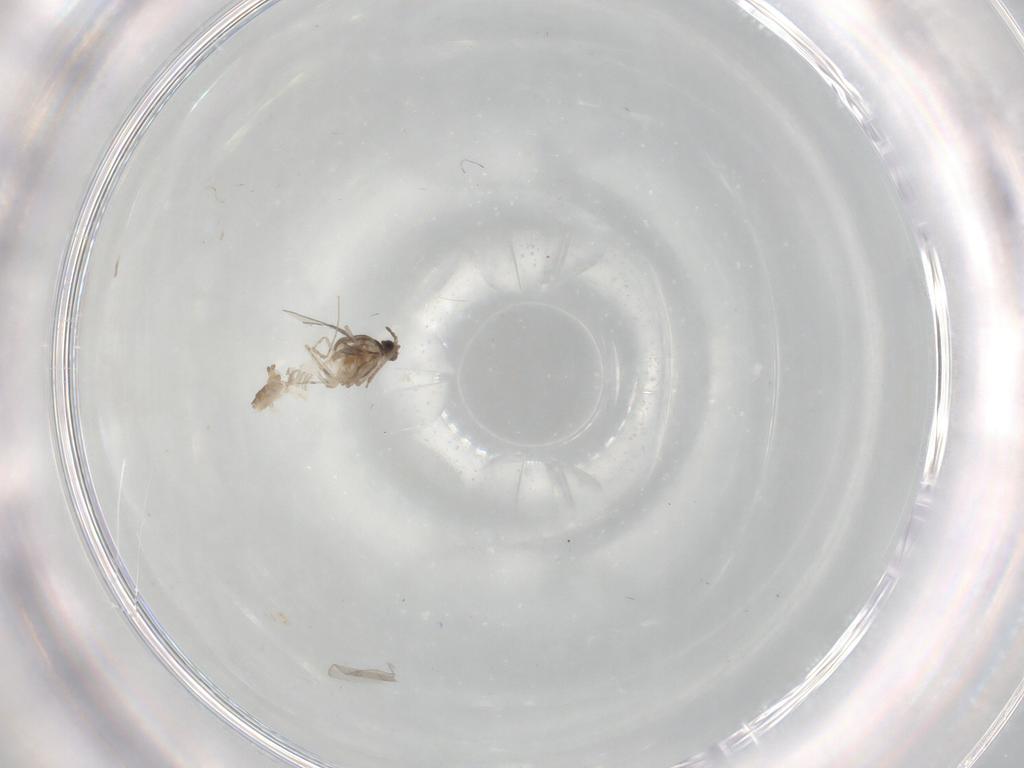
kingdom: Animalia
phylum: Arthropoda
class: Insecta
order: Diptera
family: Cecidomyiidae
